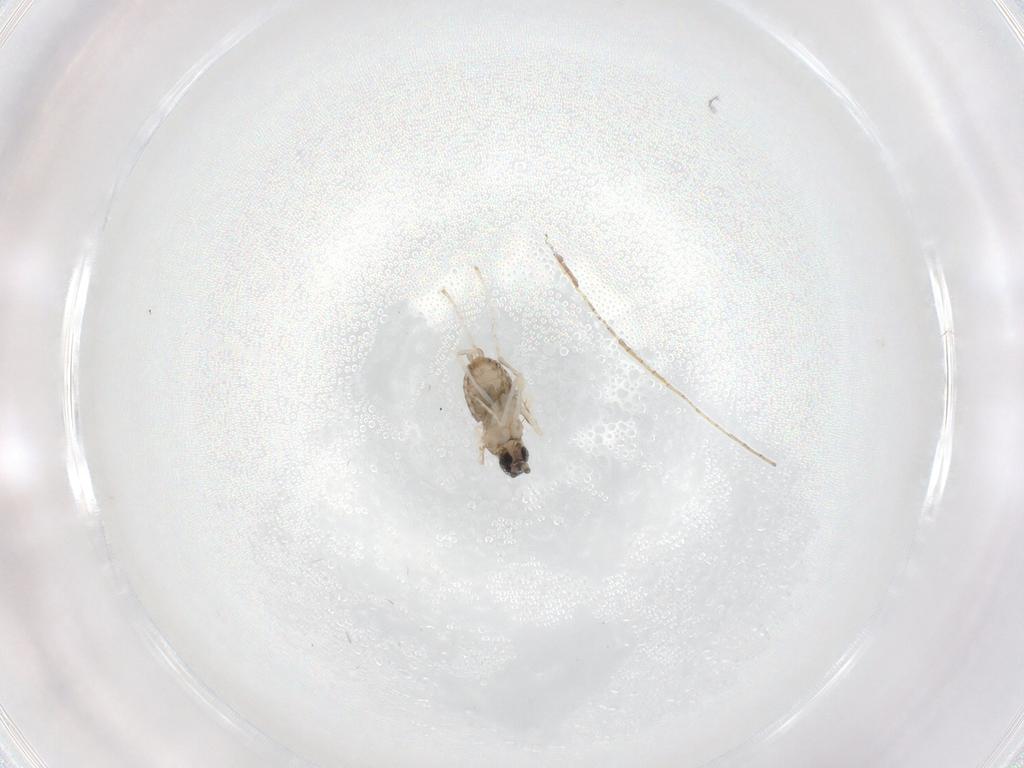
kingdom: Animalia
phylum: Arthropoda
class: Insecta
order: Diptera
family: Cecidomyiidae
